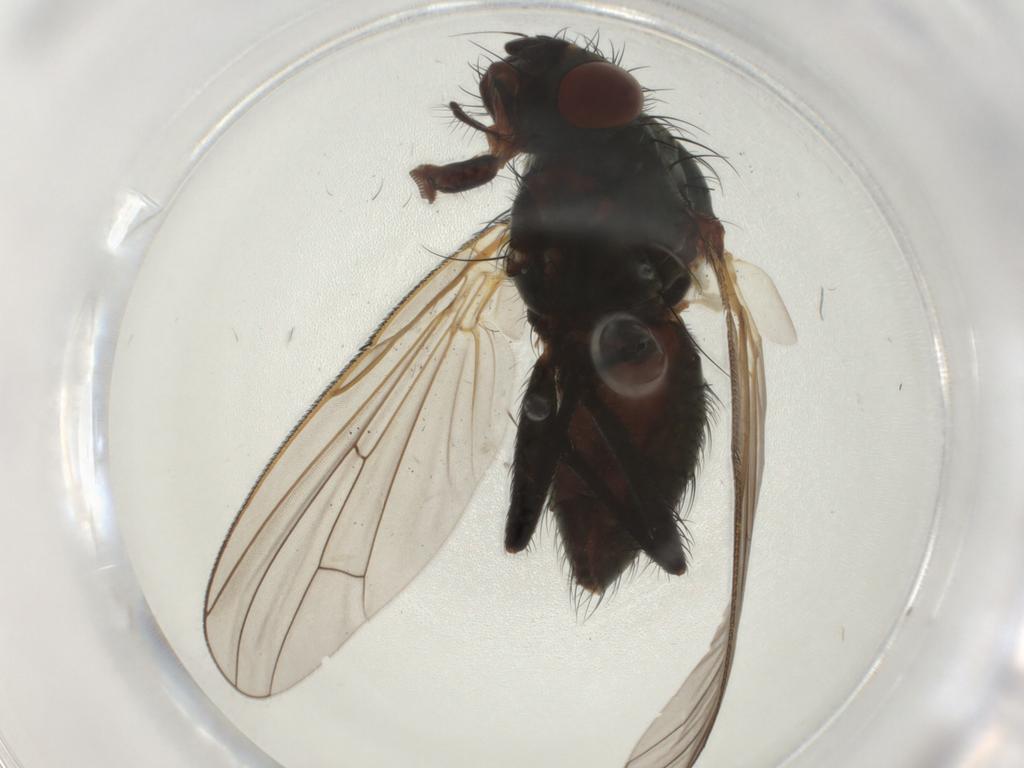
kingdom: Animalia
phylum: Arthropoda
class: Insecta
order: Diptera
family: Anthomyiidae
